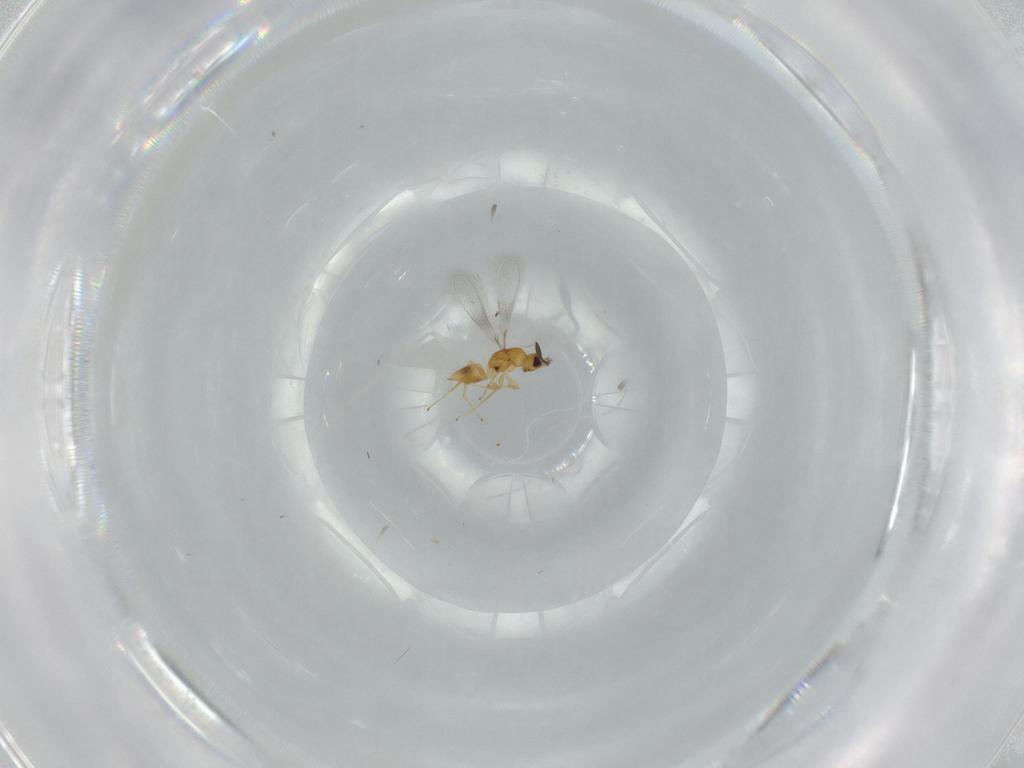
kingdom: Animalia
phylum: Arthropoda
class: Insecta
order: Hymenoptera
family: Mymaridae
